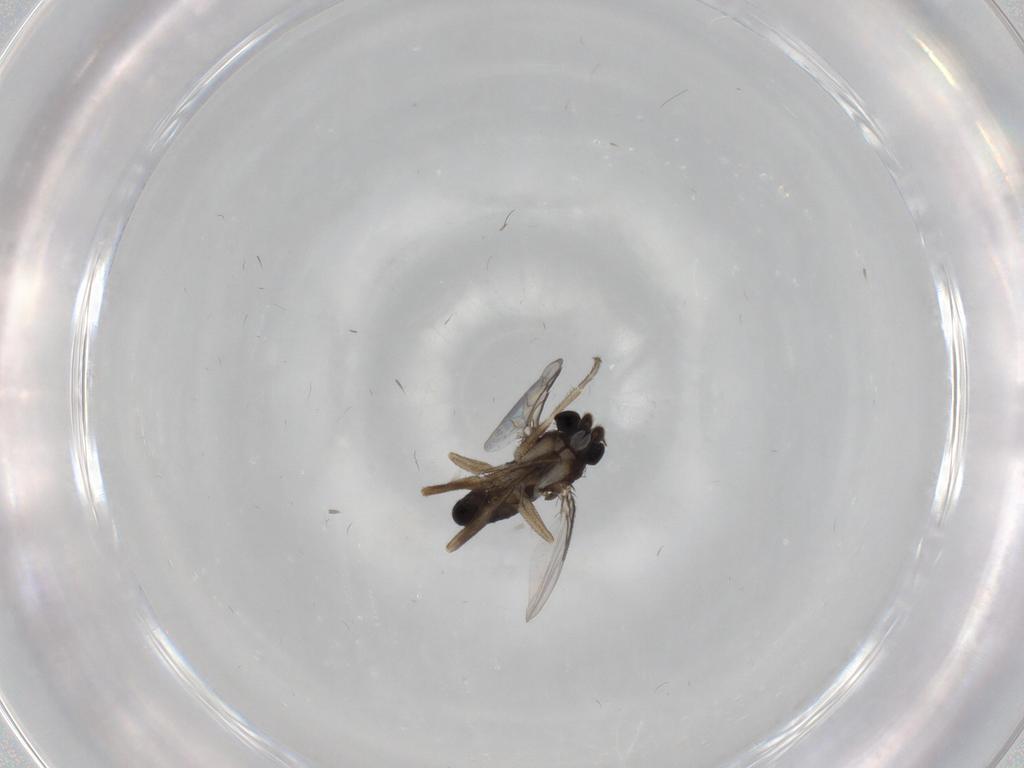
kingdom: Animalia
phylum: Arthropoda
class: Insecta
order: Diptera
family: Phoridae
